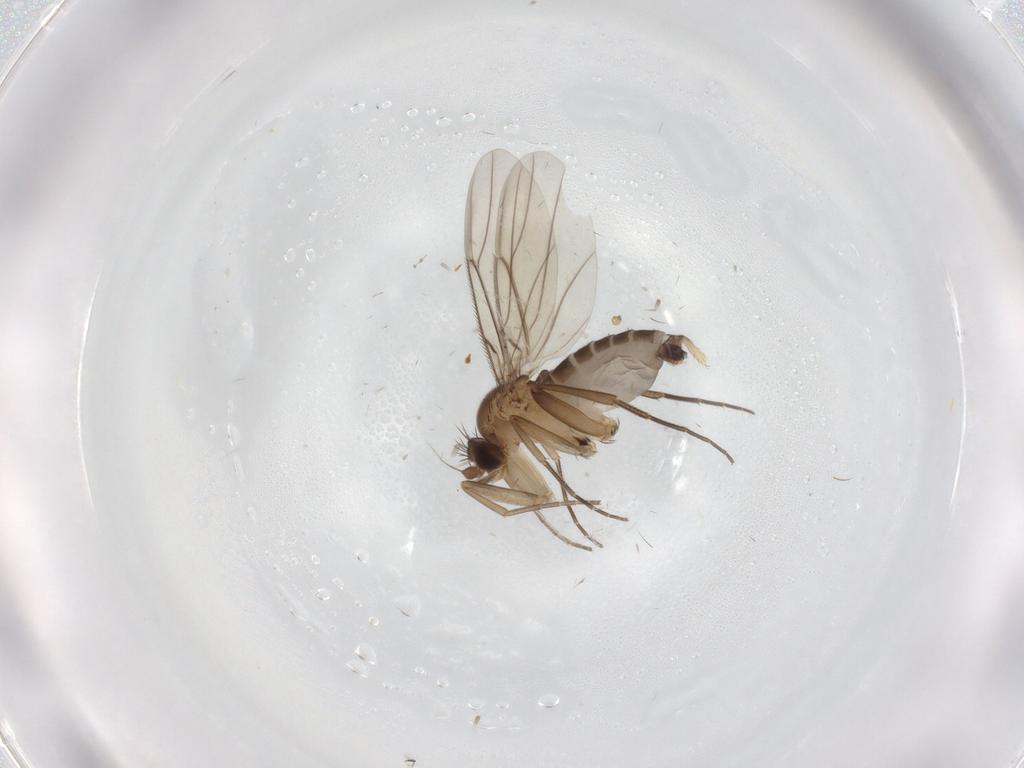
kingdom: Animalia
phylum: Arthropoda
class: Insecta
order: Diptera
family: Phoridae
